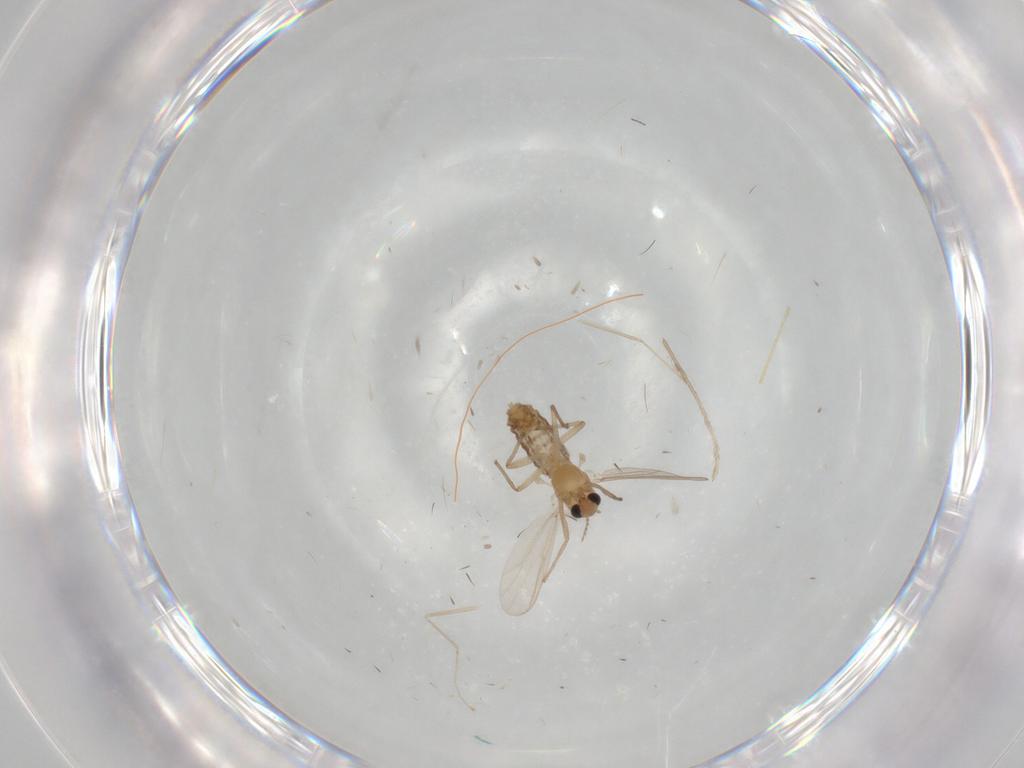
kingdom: Animalia
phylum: Arthropoda
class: Insecta
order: Diptera
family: Chironomidae
